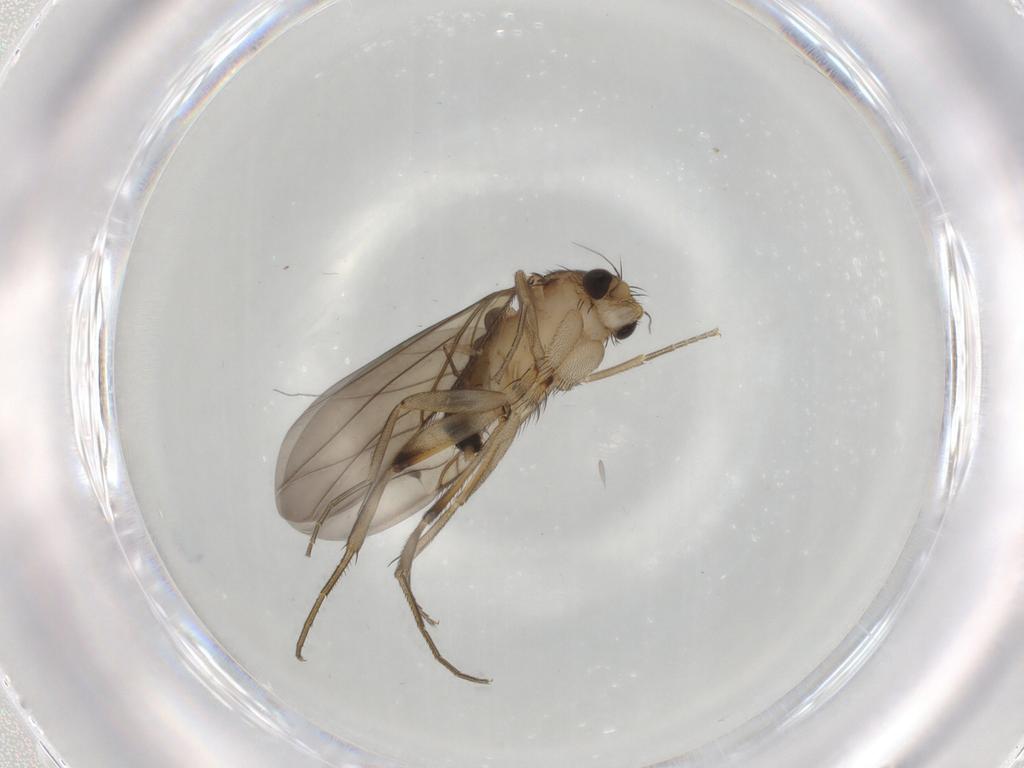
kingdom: Animalia
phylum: Arthropoda
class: Insecta
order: Diptera
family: Phoridae
